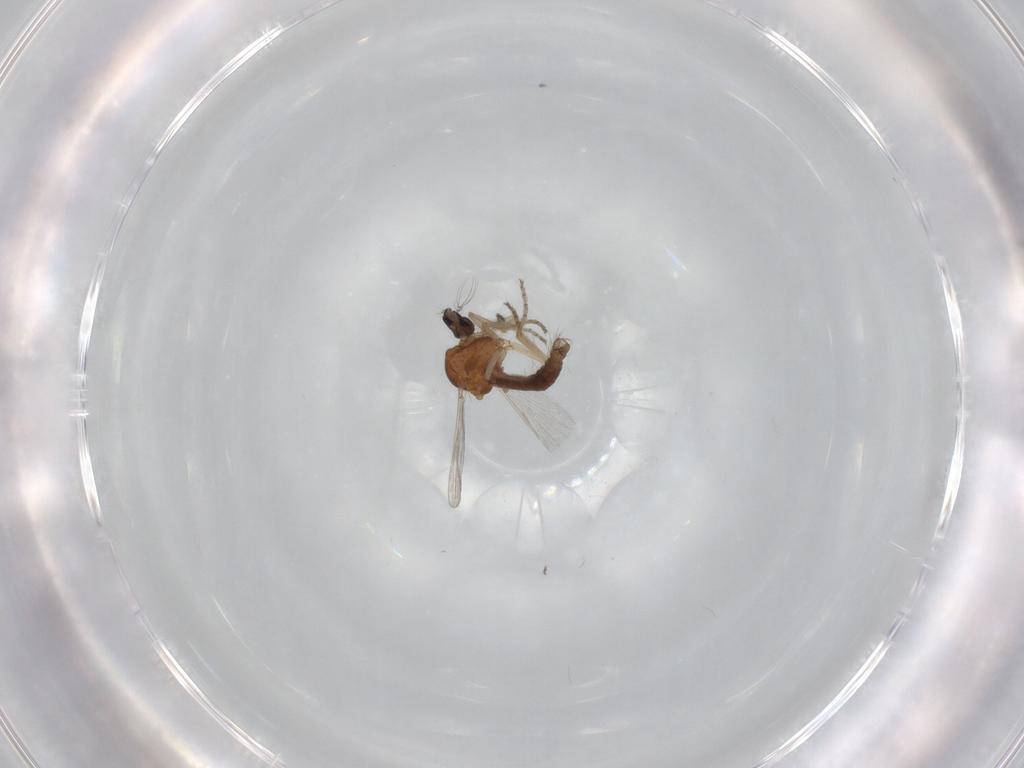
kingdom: Animalia
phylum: Arthropoda
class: Insecta
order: Diptera
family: Ceratopogonidae
